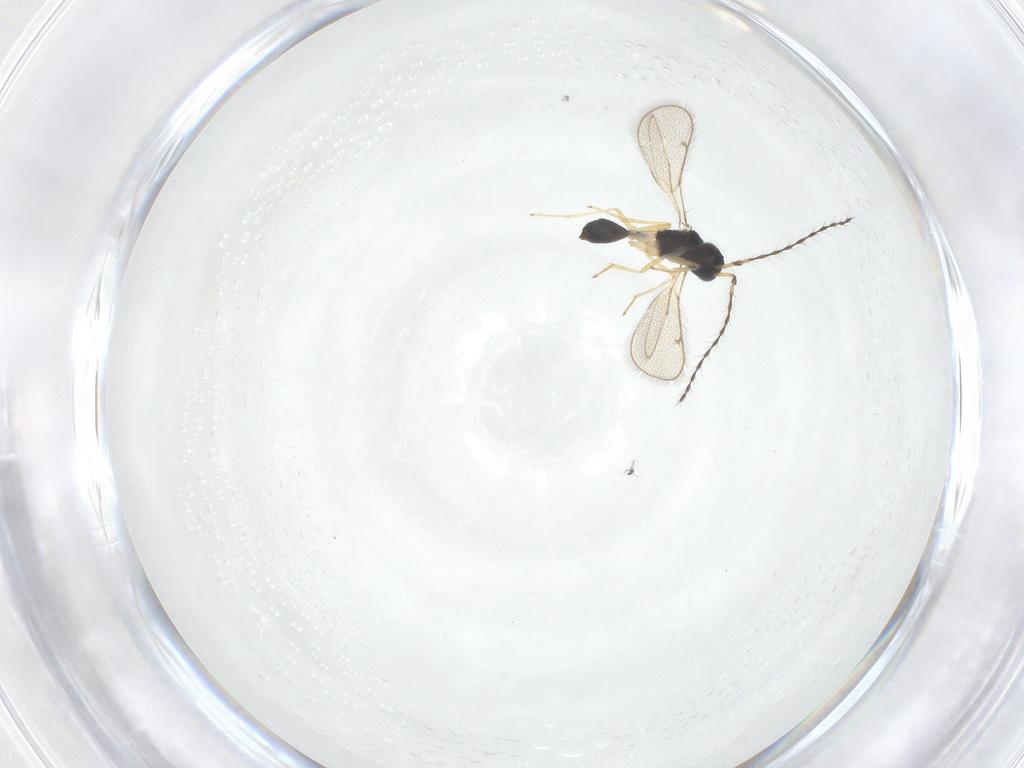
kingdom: Animalia
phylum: Arthropoda
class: Insecta
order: Hymenoptera
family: Diparidae
